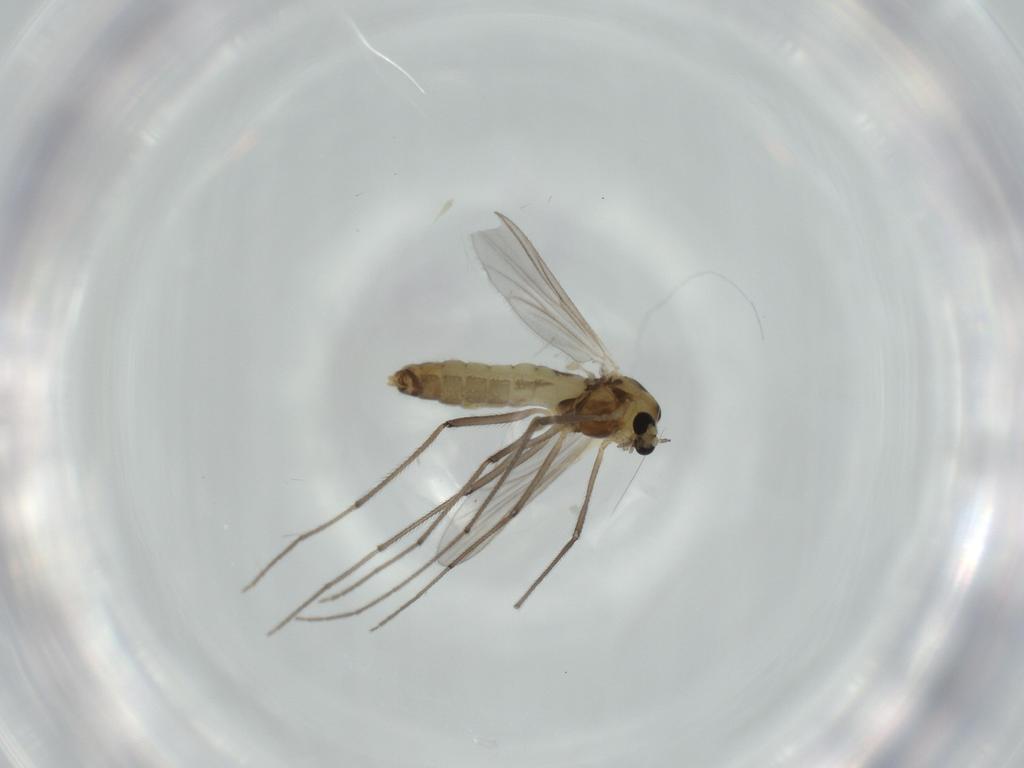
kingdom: Animalia
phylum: Arthropoda
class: Insecta
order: Diptera
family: Chironomidae
